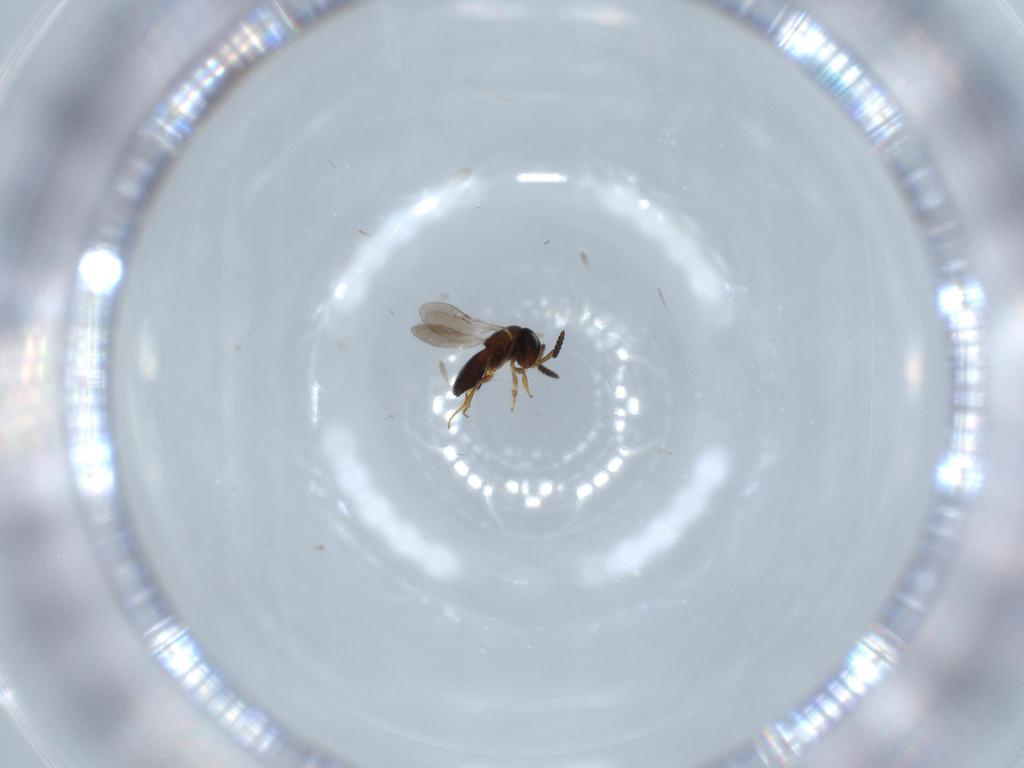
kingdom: Animalia
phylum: Arthropoda
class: Insecta
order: Hymenoptera
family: Scelionidae
